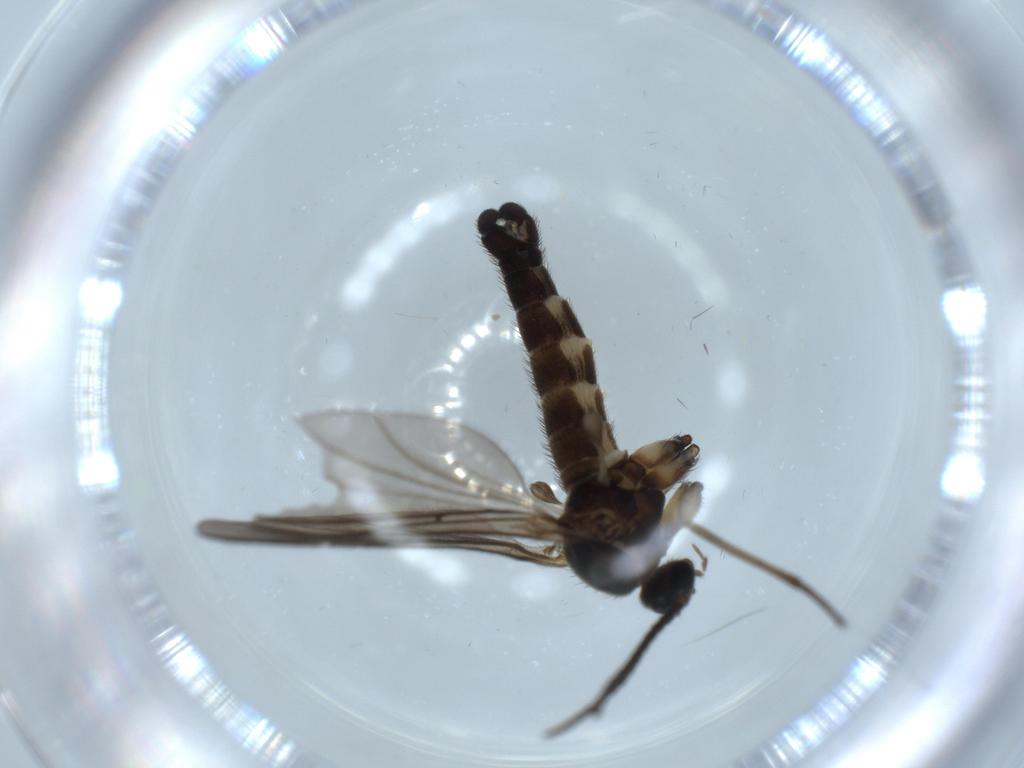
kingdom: Animalia
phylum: Arthropoda
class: Insecta
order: Diptera
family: Sciaridae
